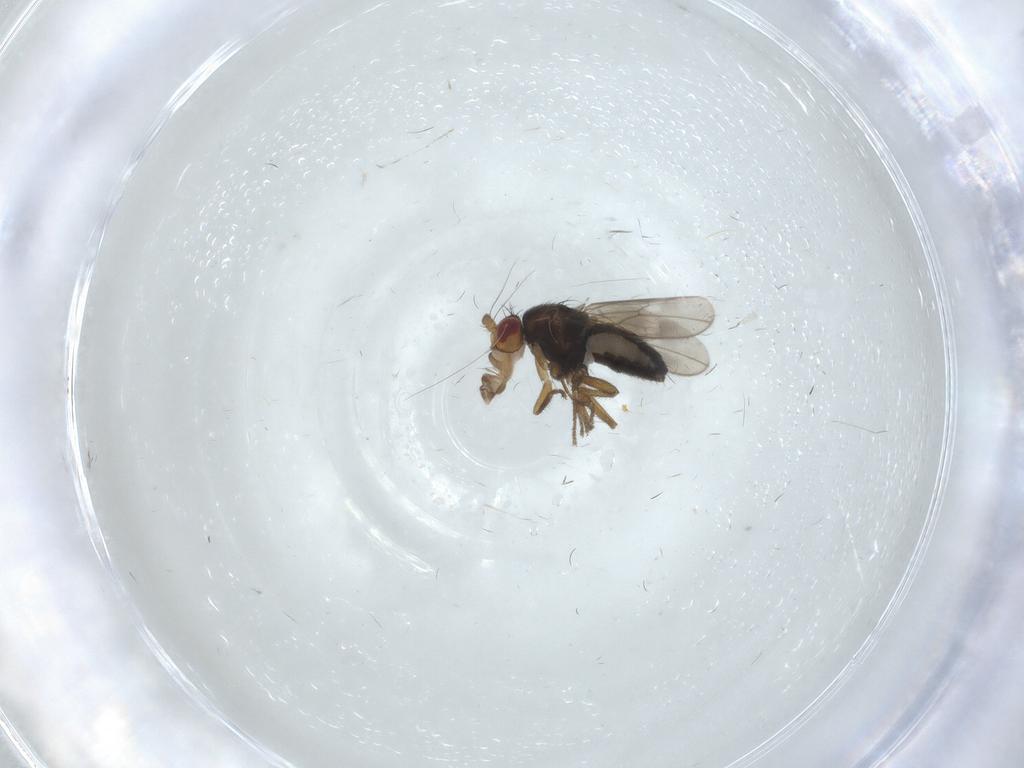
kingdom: Animalia
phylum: Arthropoda
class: Insecta
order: Diptera
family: Sphaeroceridae
